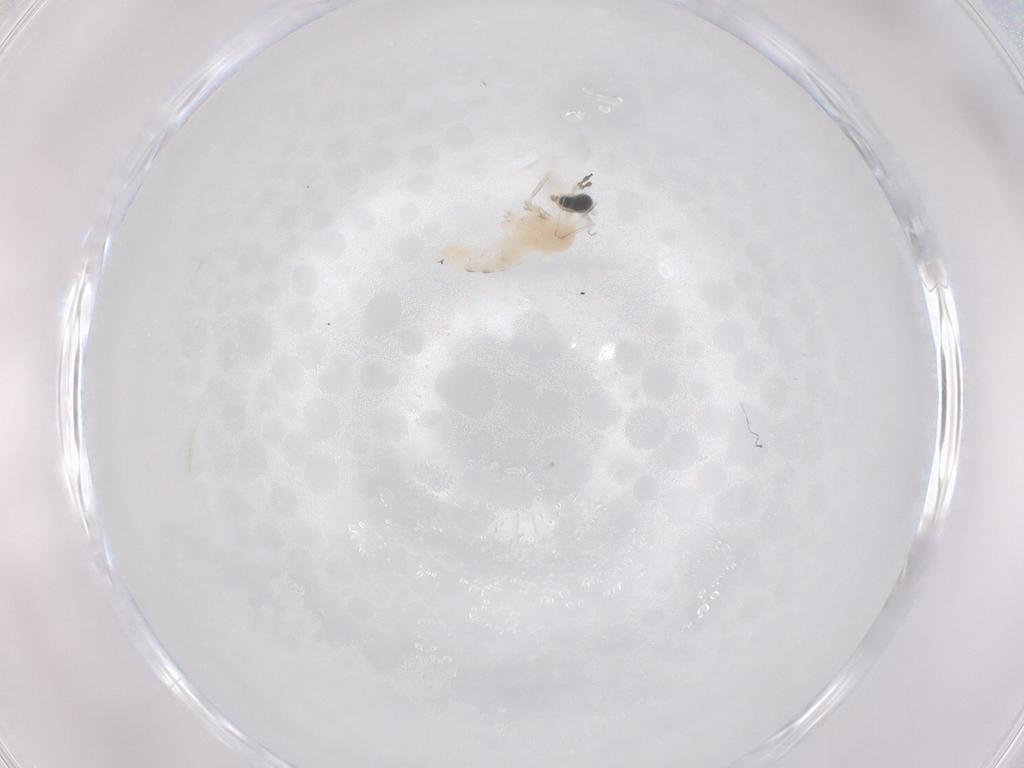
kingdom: Animalia
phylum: Arthropoda
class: Insecta
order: Diptera
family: Cecidomyiidae
